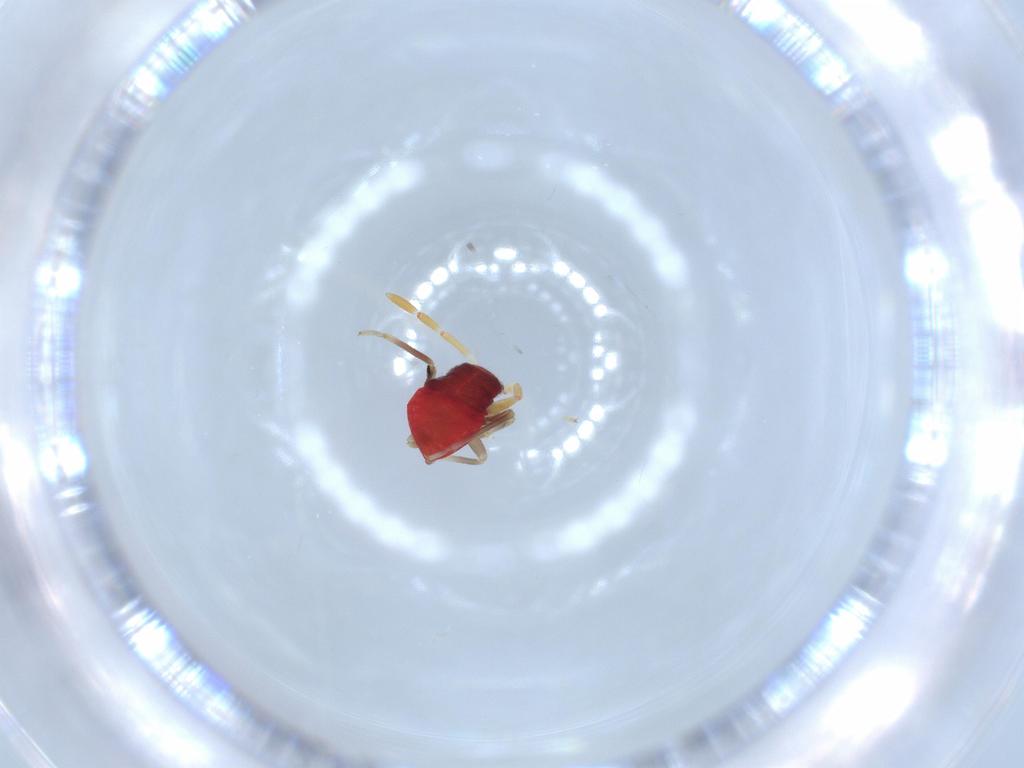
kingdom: Animalia
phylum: Arthropoda
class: Insecta
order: Hemiptera
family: Miridae
